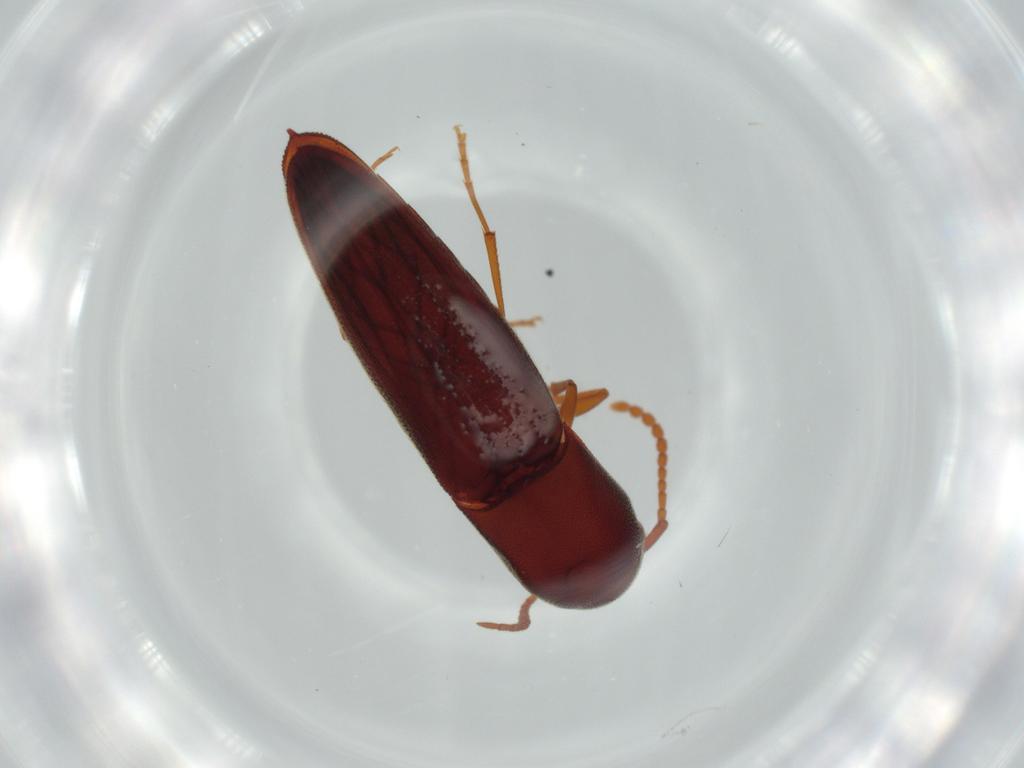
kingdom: Animalia
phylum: Arthropoda
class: Insecta
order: Coleoptera
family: Eucnemidae
